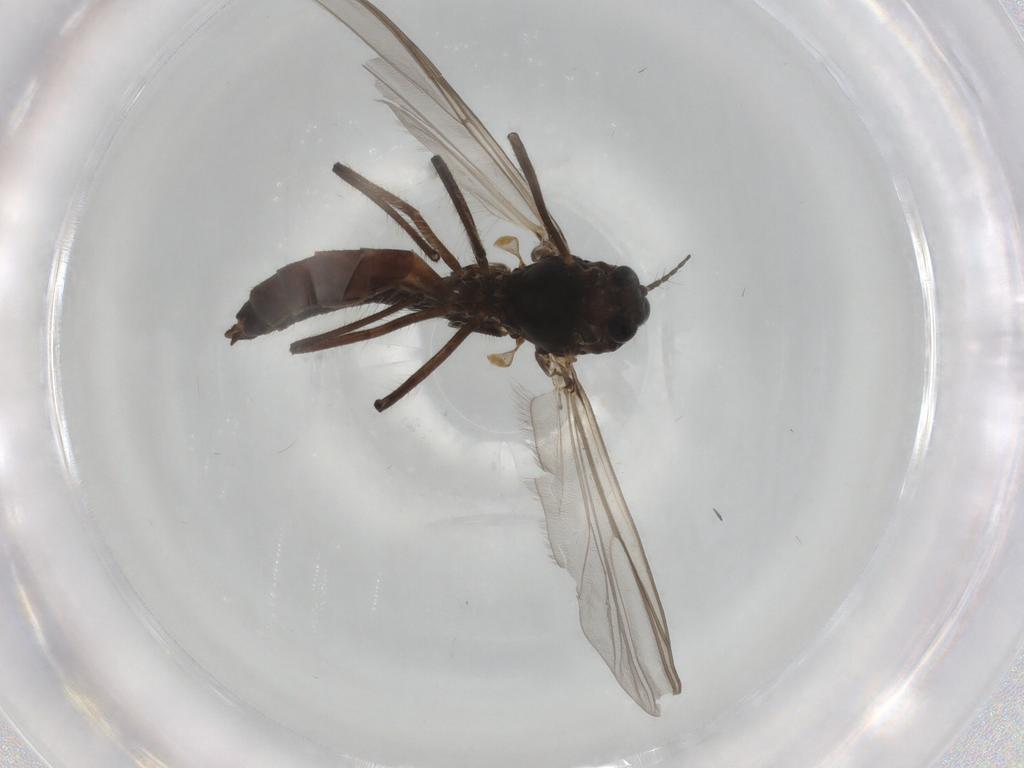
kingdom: Animalia
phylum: Arthropoda
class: Insecta
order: Diptera
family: Chironomidae
